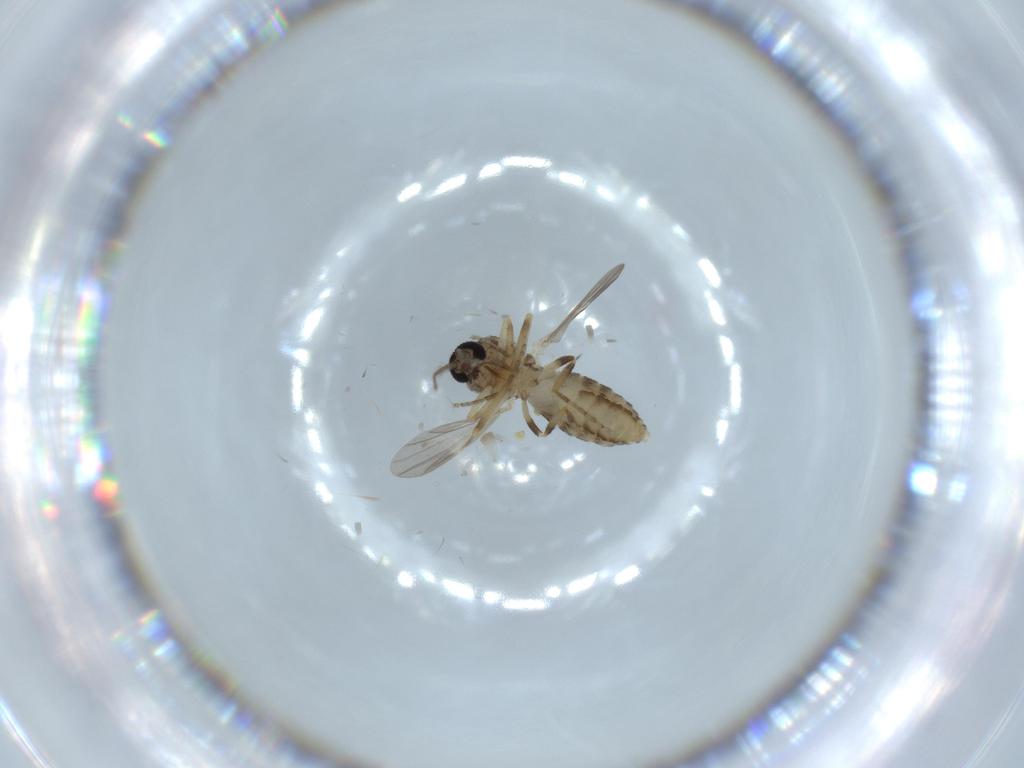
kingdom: Animalia
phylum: Arthropoda
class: Insecta
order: Diptera
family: Ceratopogonidae
